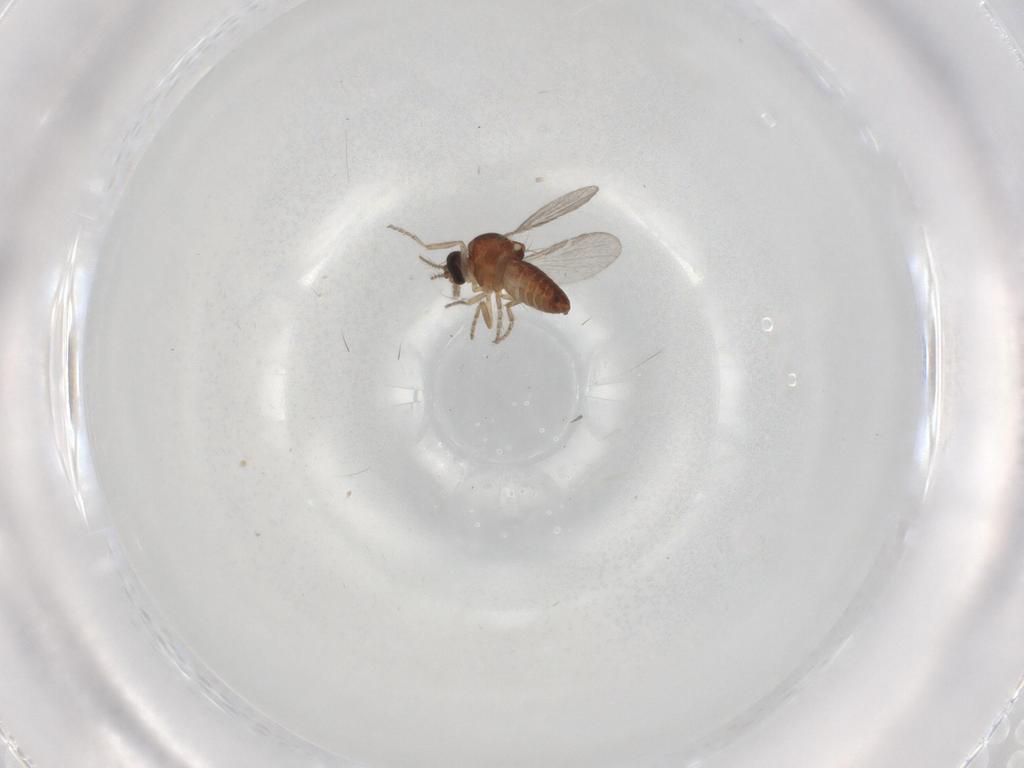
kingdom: Animalia
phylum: Arthropoda
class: Insecta
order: Diptera
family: Ceratopogonidae
